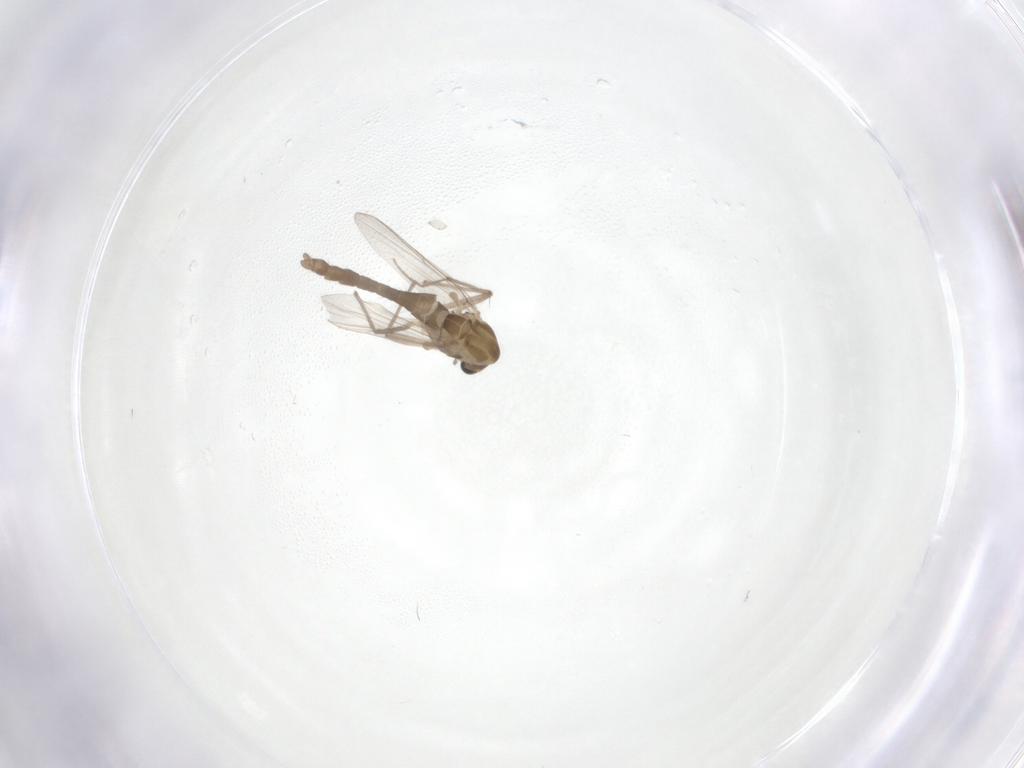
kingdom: Animalia
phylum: Arthropoda
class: Insecta
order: Diptera
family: Chironomidae
